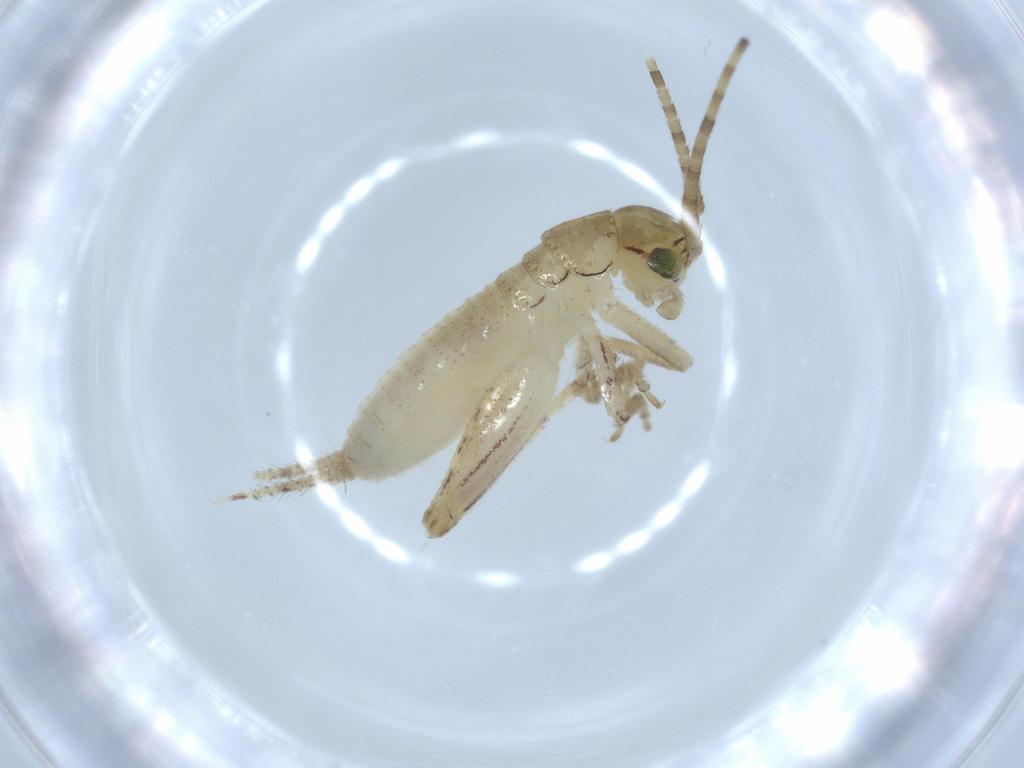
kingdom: Animalia
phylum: Arthropoda
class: Insecta
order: Orthoptera
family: Gryllidae
